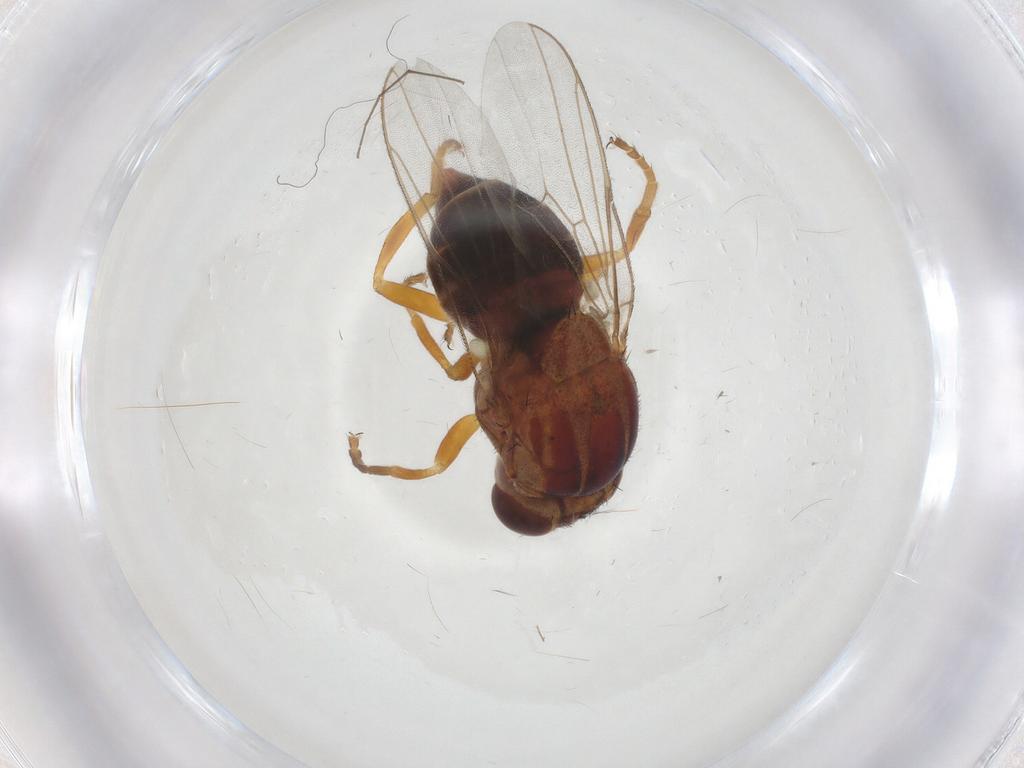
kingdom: Animalia
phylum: Arthropoda
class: Insecta
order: Diptera
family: Chloropidae
